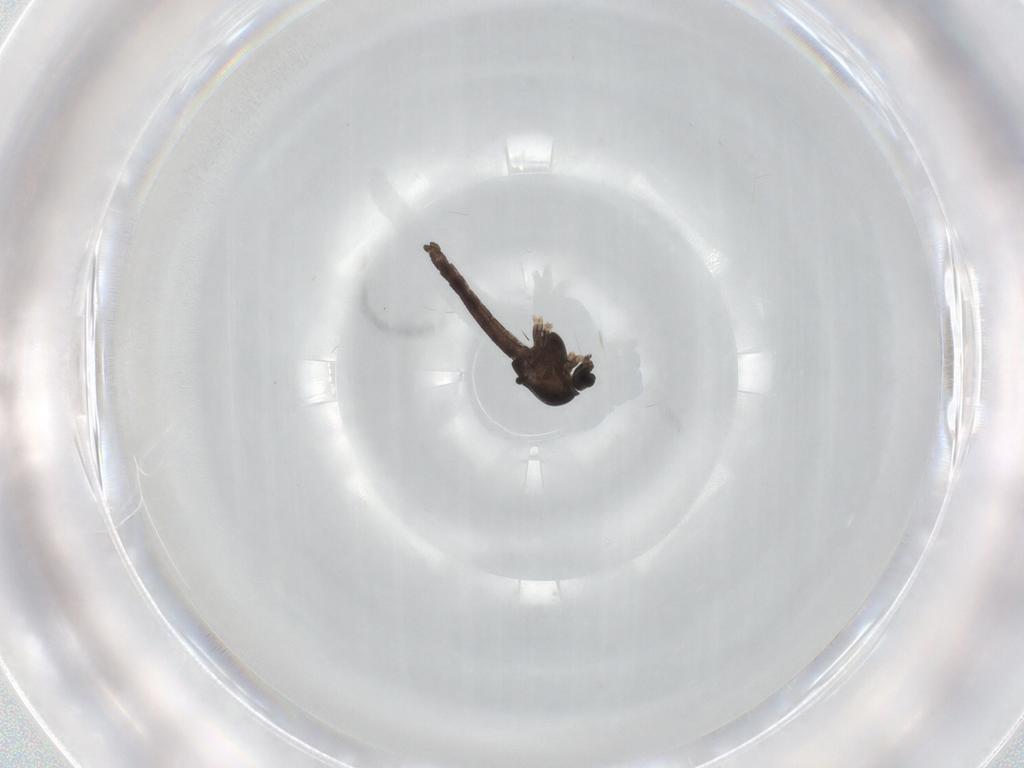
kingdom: Animalia
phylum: Arthropoda
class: Insecta
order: Diptera
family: Chironomidae
